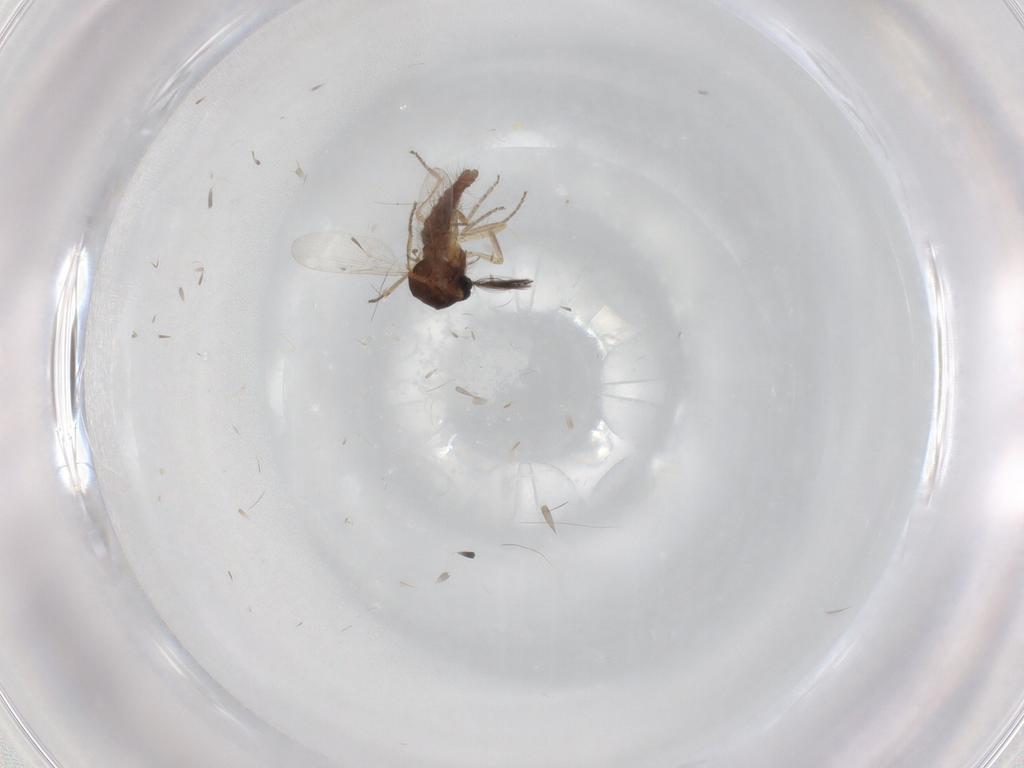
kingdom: Animalia
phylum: Arthropoda
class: Insecta
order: Diptera
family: Ceratopogonidae
